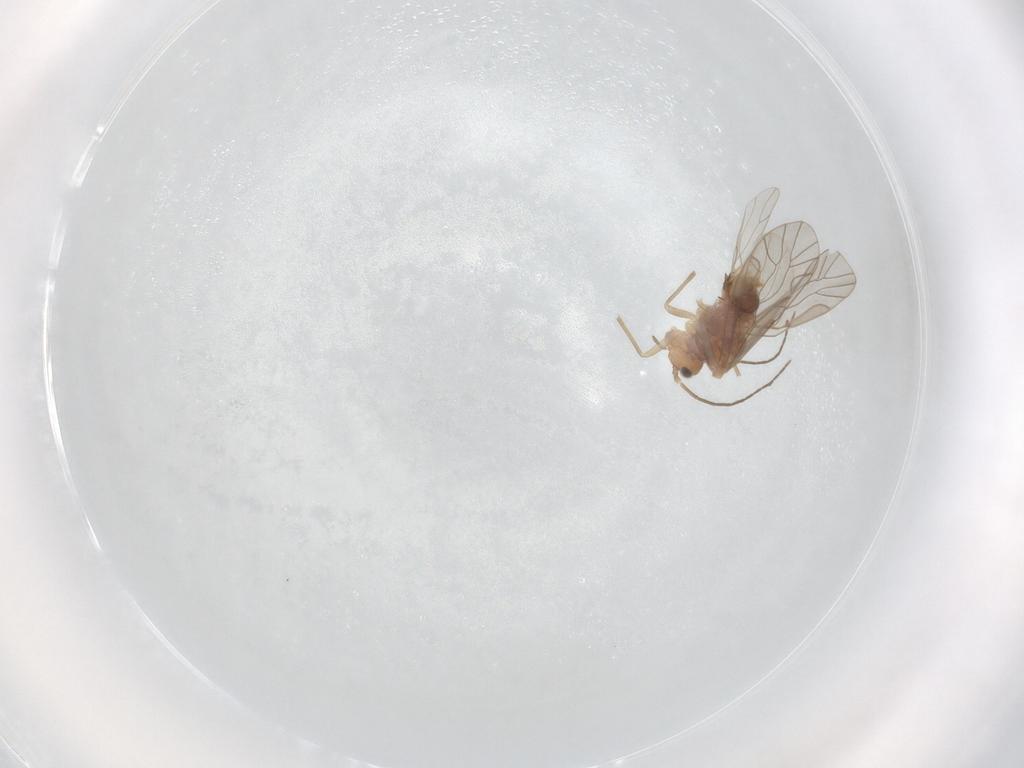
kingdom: Animalia
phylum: Arthropoda
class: Insecta
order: Psocodea
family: Lachesillidae
